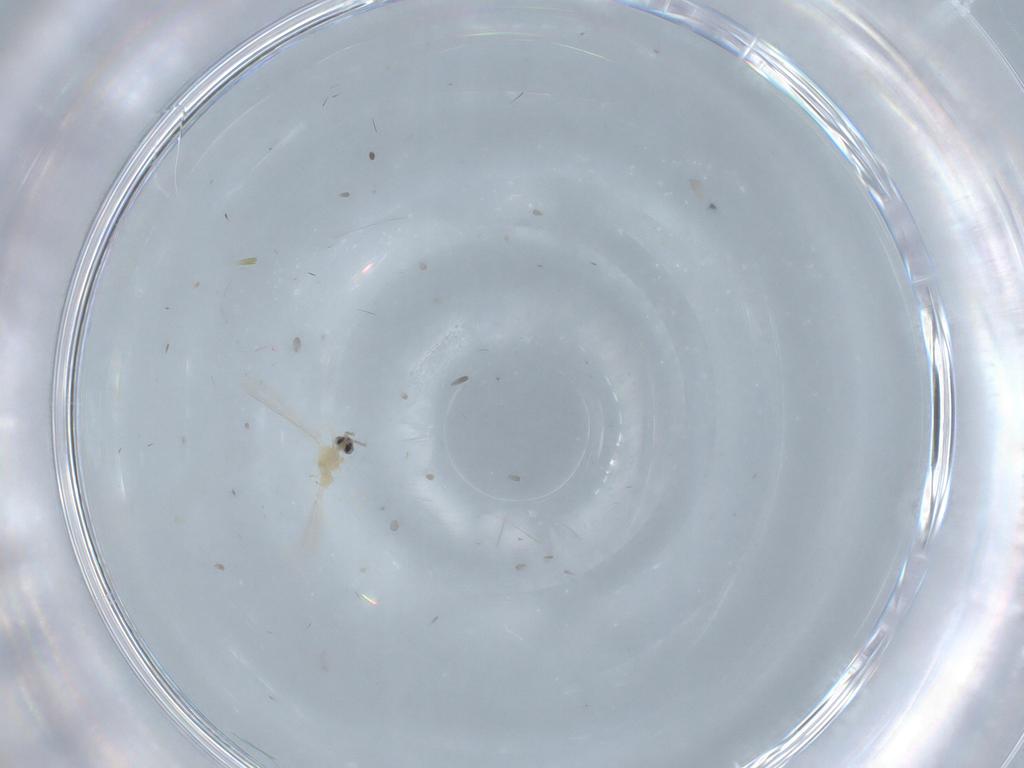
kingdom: Animalia
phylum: Arthropoda
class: Insecta
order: Diptera
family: Cecidomyiidae
